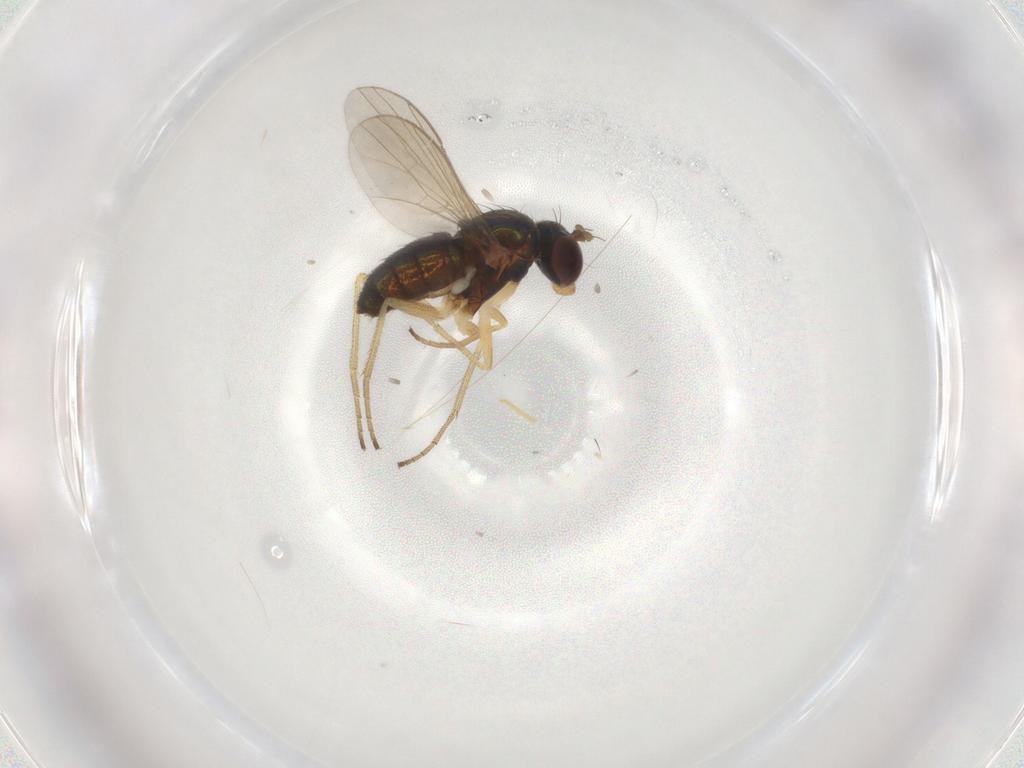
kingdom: Animalia
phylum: Arthropoda
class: Insecta
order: Diptera
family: Dolichopodidae
